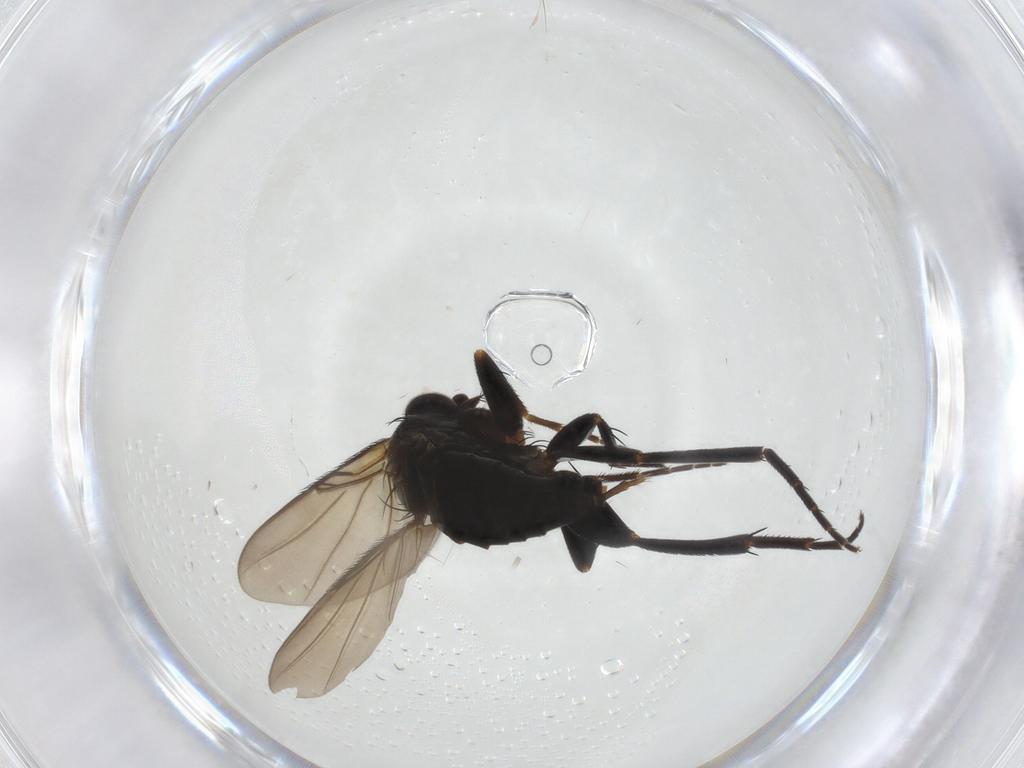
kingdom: Animalia
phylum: Arthropoda
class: Insecta
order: Diptera
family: Phoridae
